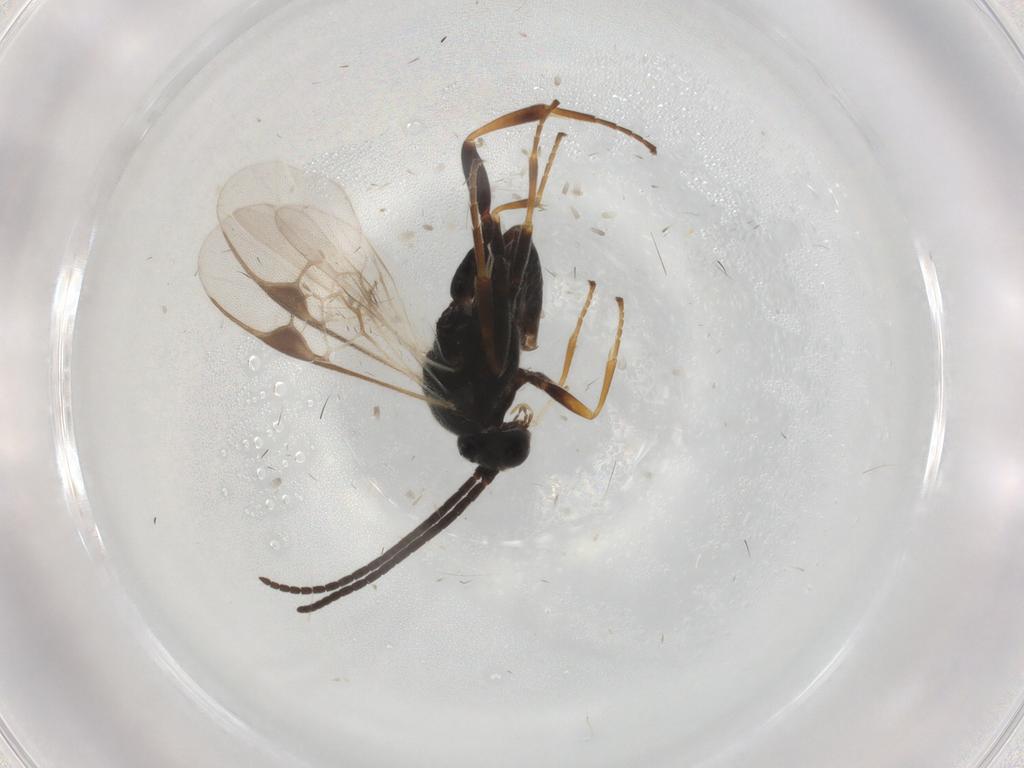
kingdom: Animalia
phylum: Arthropoda
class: Insecta
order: Hymenoptera
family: Braconidae
